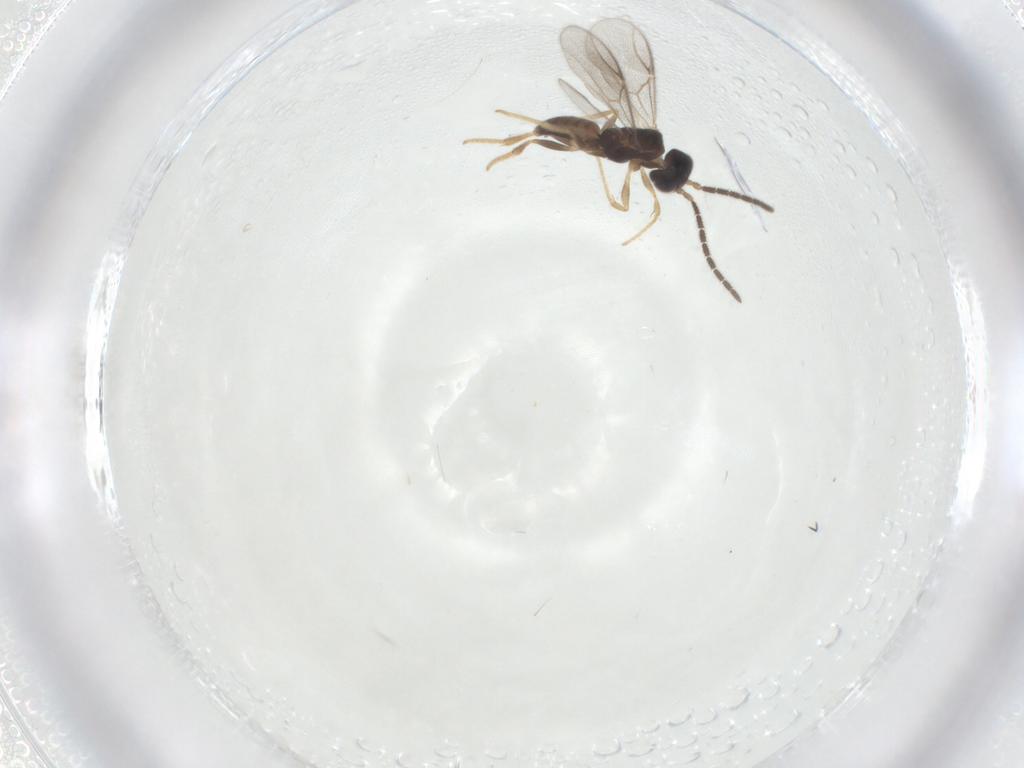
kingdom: Animalia
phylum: Arthropoda
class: Insecta
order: Hymenoptera
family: Dryinidae
